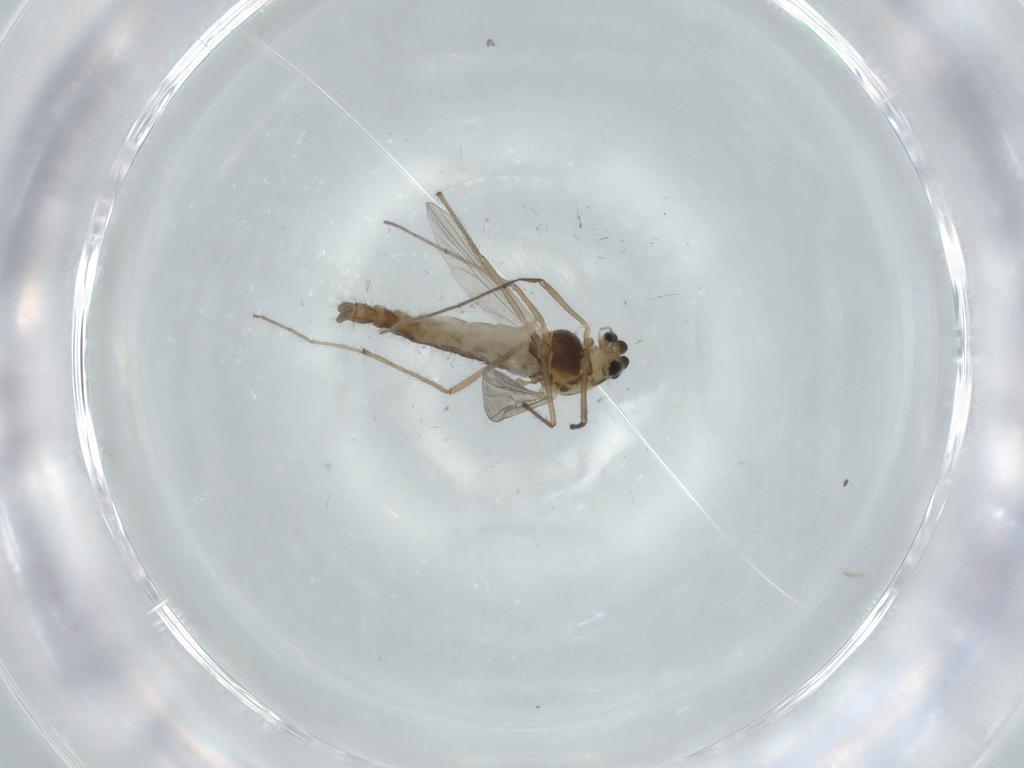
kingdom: Animalia
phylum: Arthropoda
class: Insecta
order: Diptera
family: Chironomidae
